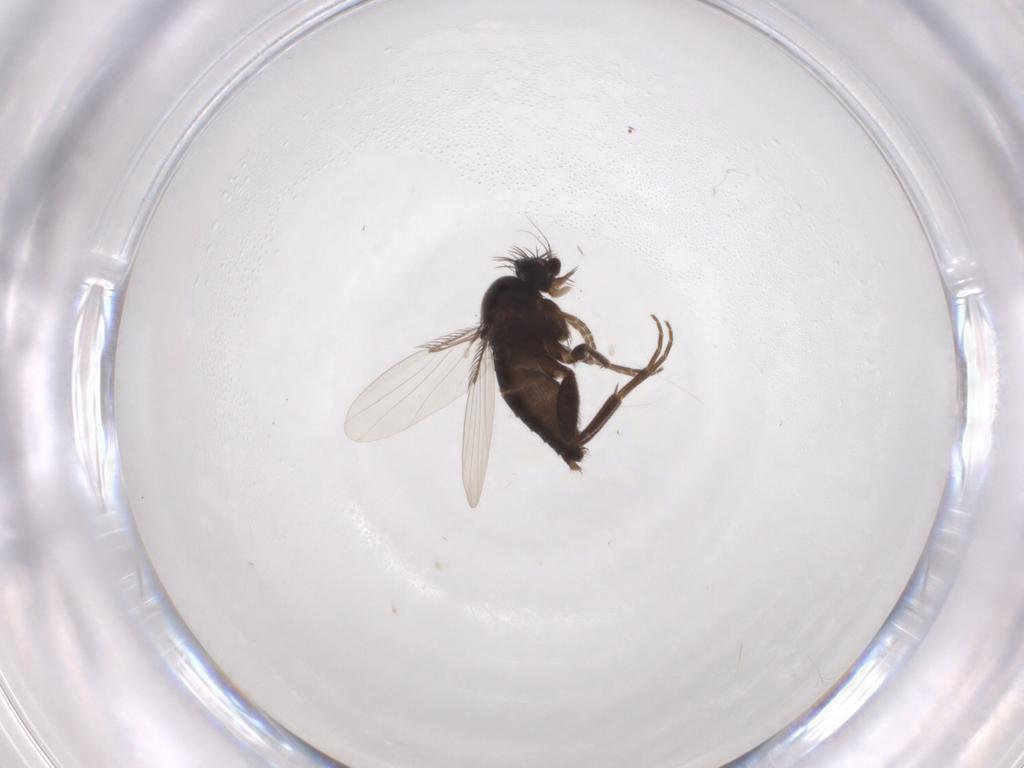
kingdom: Animalia
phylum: Arthropoda
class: Insecta
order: Diptera
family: Phoridae
